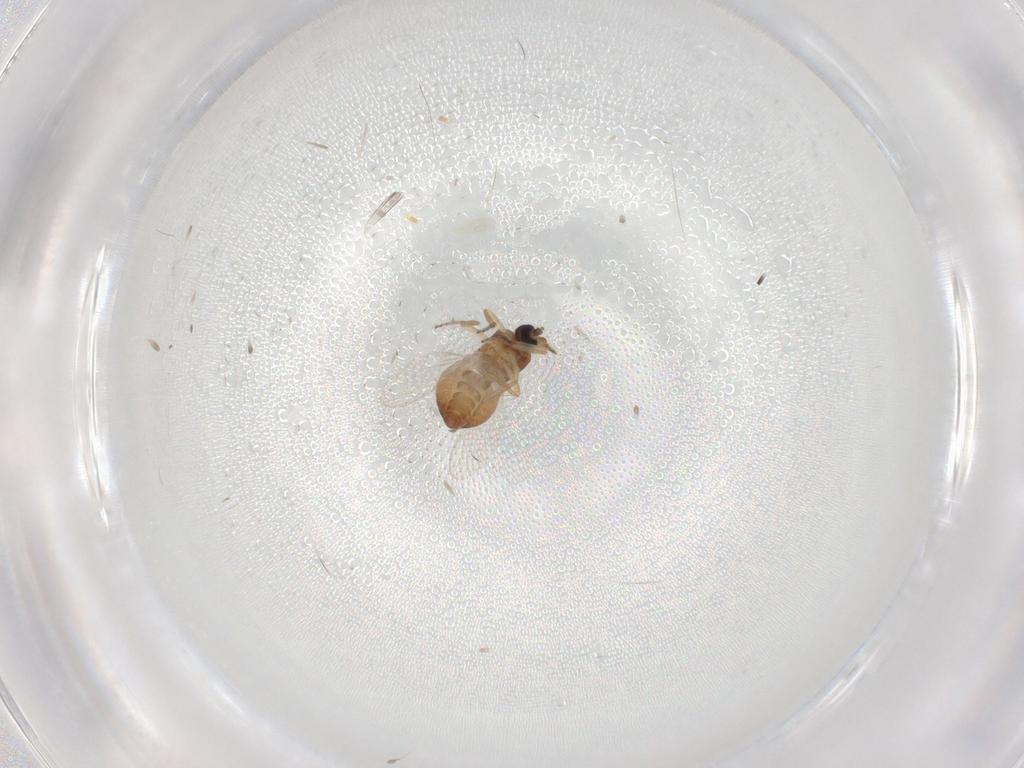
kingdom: Animalia
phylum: Arthropoda
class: Insecta
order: Diptera
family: Ceratopogonidae
